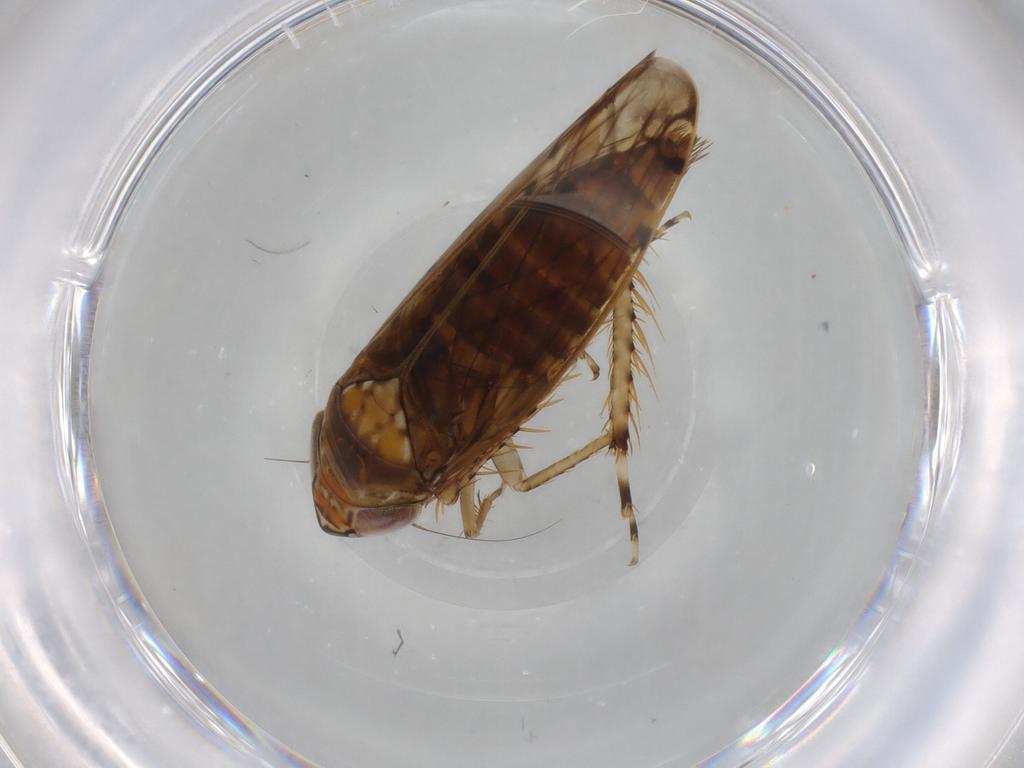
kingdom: Animalia
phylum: Arthropoda
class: Insecta
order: Hemiptera
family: Cicadellidae
